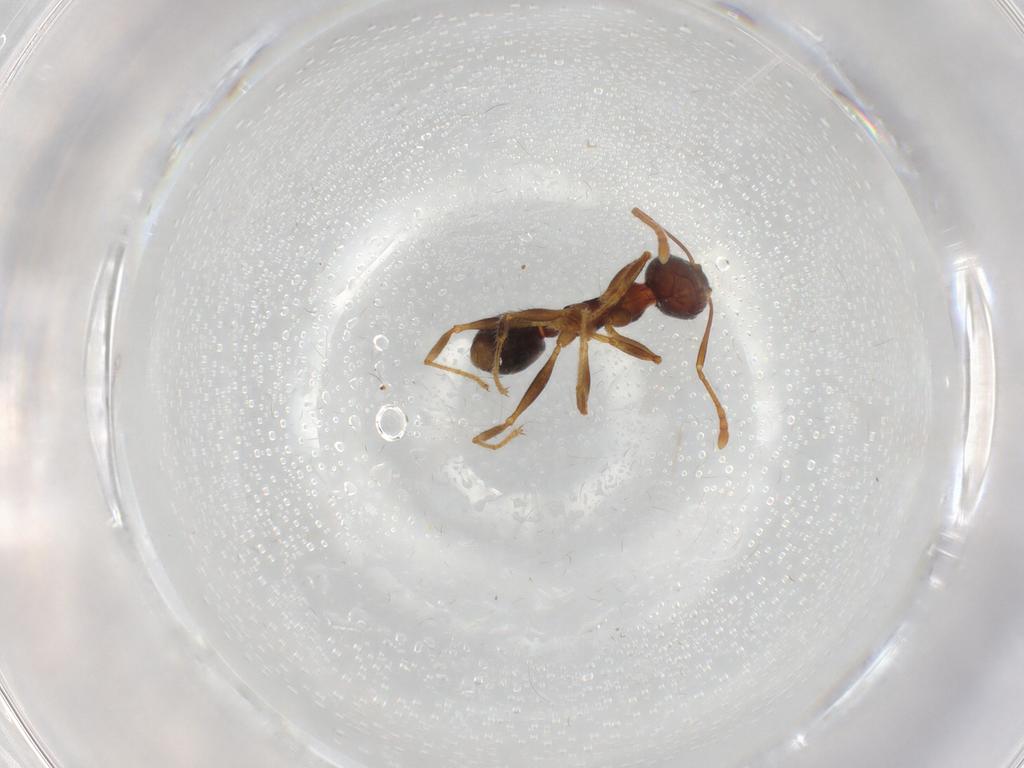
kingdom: Animalia
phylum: Arthropoda
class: Insecta
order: Hymenoptera
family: Formicidae
